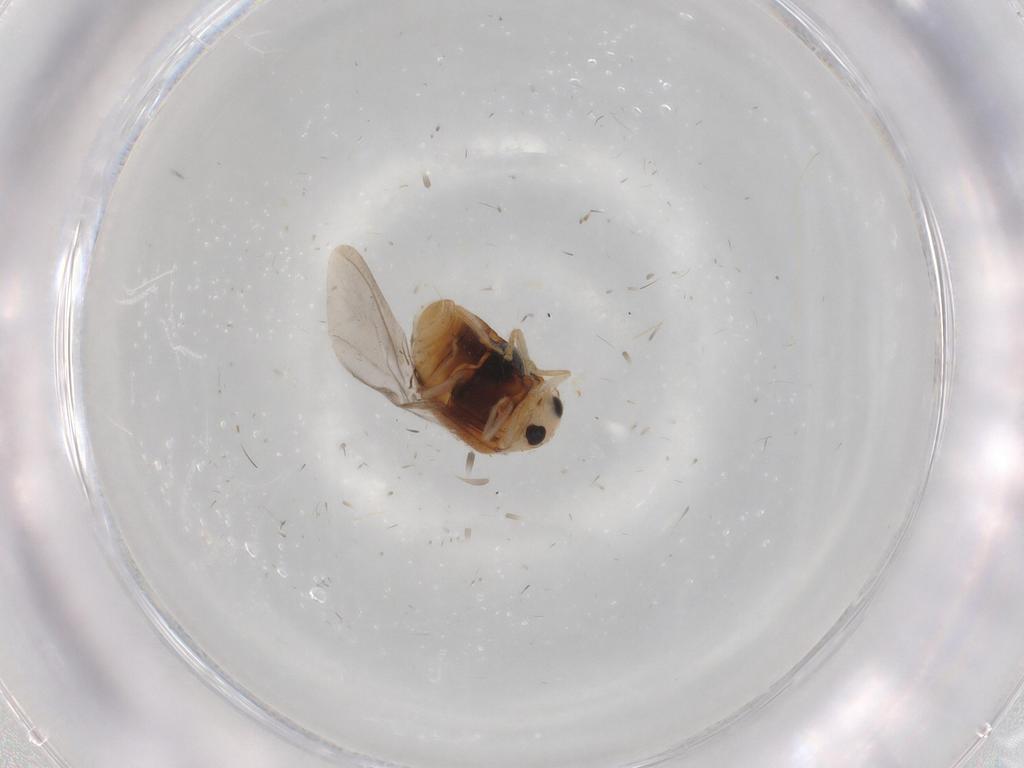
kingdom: Animalia
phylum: Arthropoda
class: Insecta
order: Coleoptera
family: Coccinellidae
